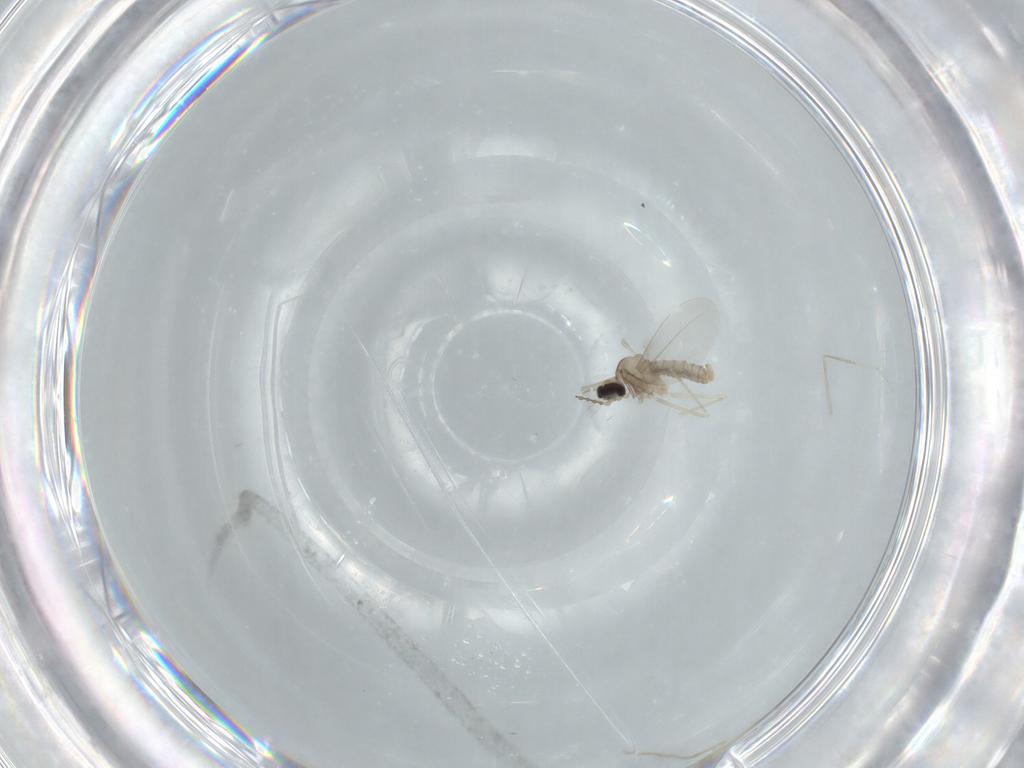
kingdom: Animalia
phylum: Arthropoda
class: Insecta
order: Diptera
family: Cecidomyiidae
